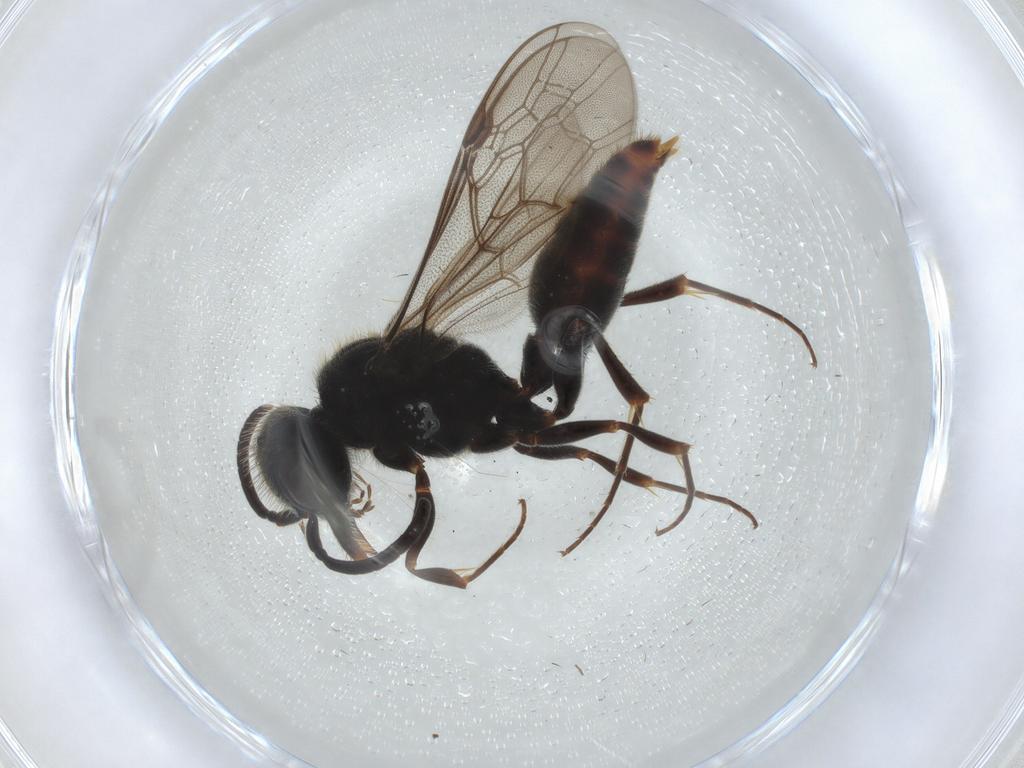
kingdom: Animalia
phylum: Arthropoda
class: Insecta
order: Hymenoptera
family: Myrmosidae
